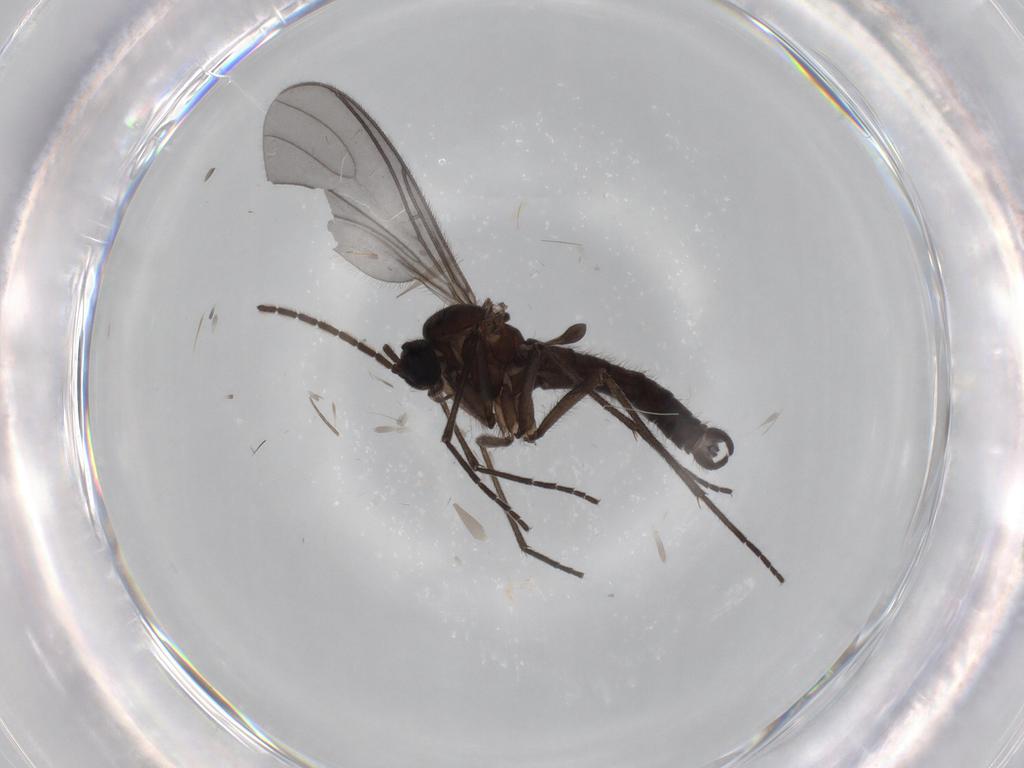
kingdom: Animalia
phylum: Arthropoda
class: Insecta
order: Diptera
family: Sciaridae
